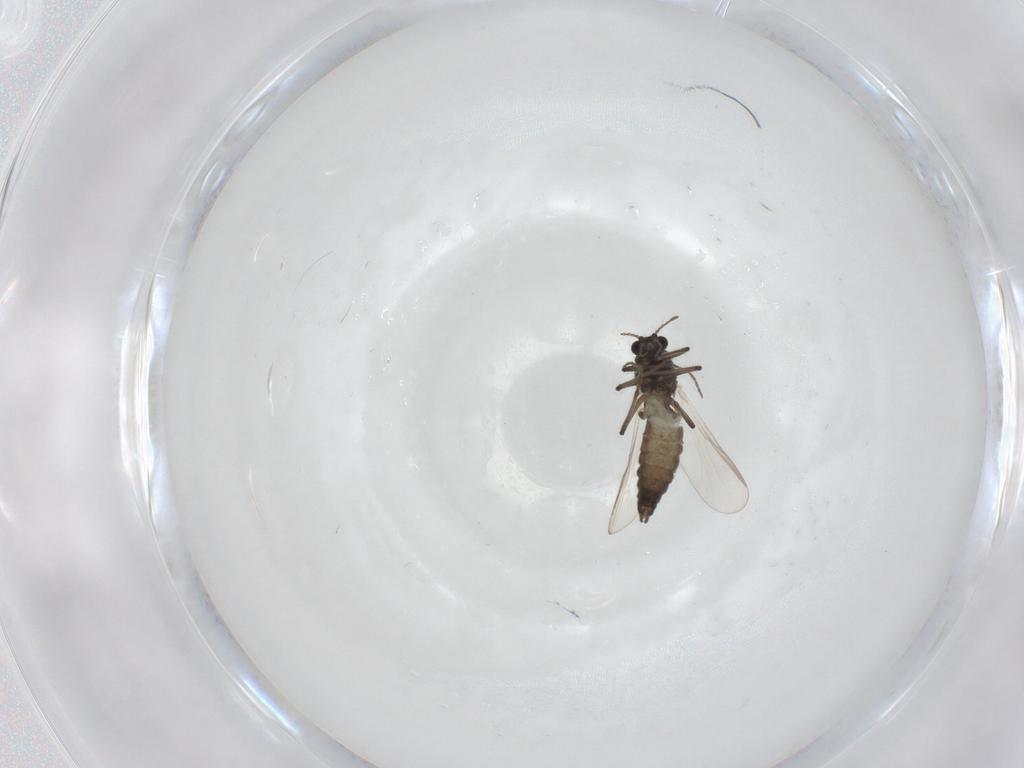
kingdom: Animalia
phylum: Arthropoda
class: Insecta
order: Diptera
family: Chironomidae
